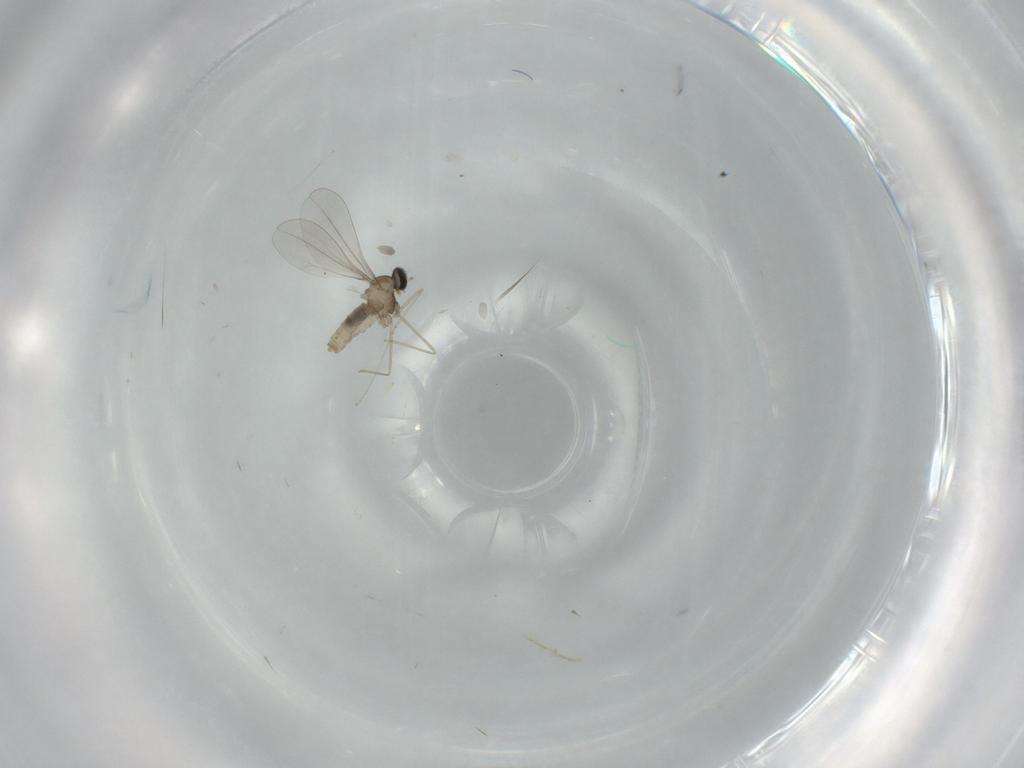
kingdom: Animalia
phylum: Arthropoda
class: Insecta
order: Diptera
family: Cecidomyiidae
